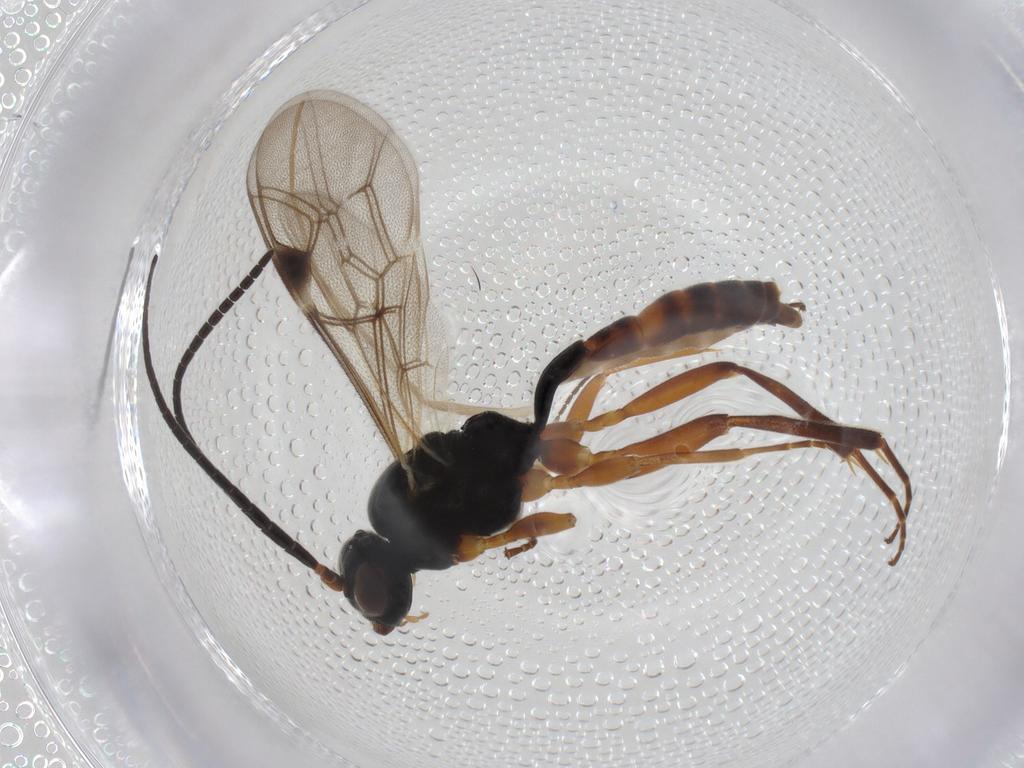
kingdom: Animalia
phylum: Arthropoda
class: Insecta
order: Hymenoptera
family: Ichneumonidae
